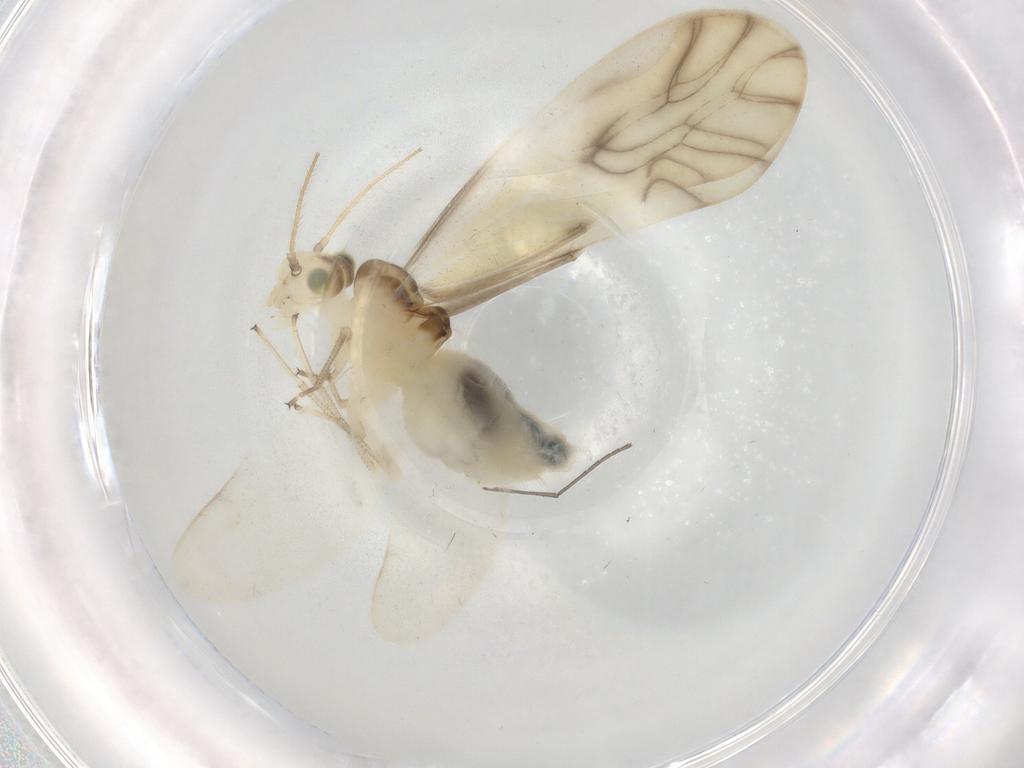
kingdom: Animalia
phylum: Arthropoda
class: Insecta
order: Psocodea
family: Caeciliusidae
